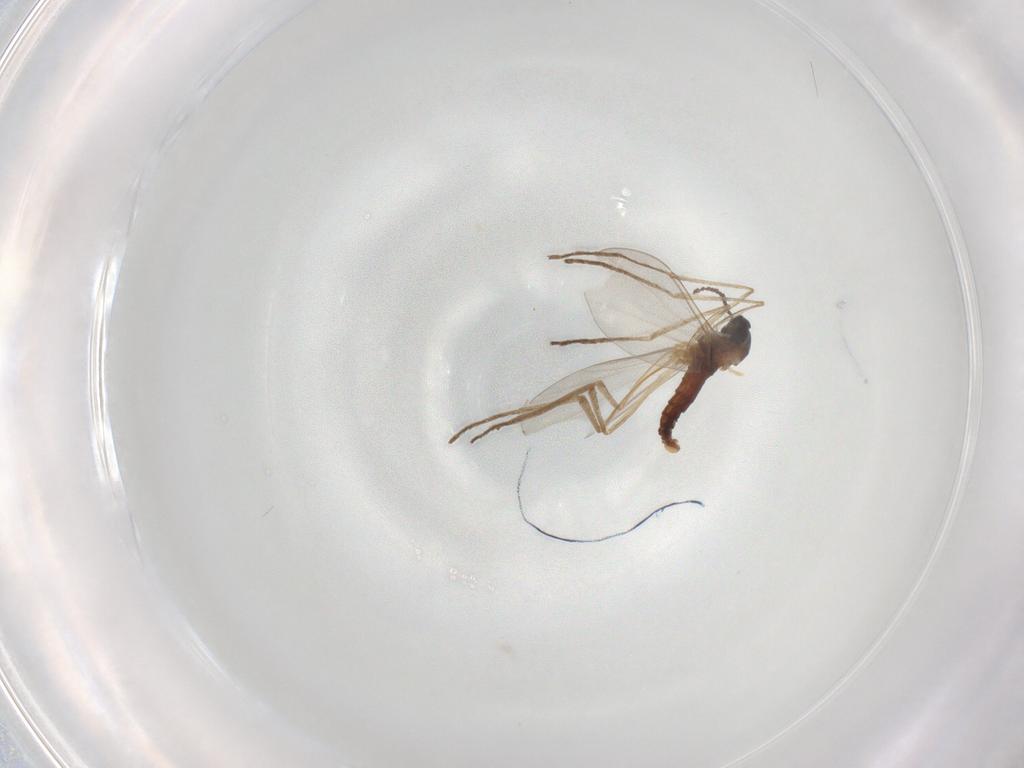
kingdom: Animalia
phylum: Arthropoda
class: Insecta
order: Diptera
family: Cecidomyiidae
